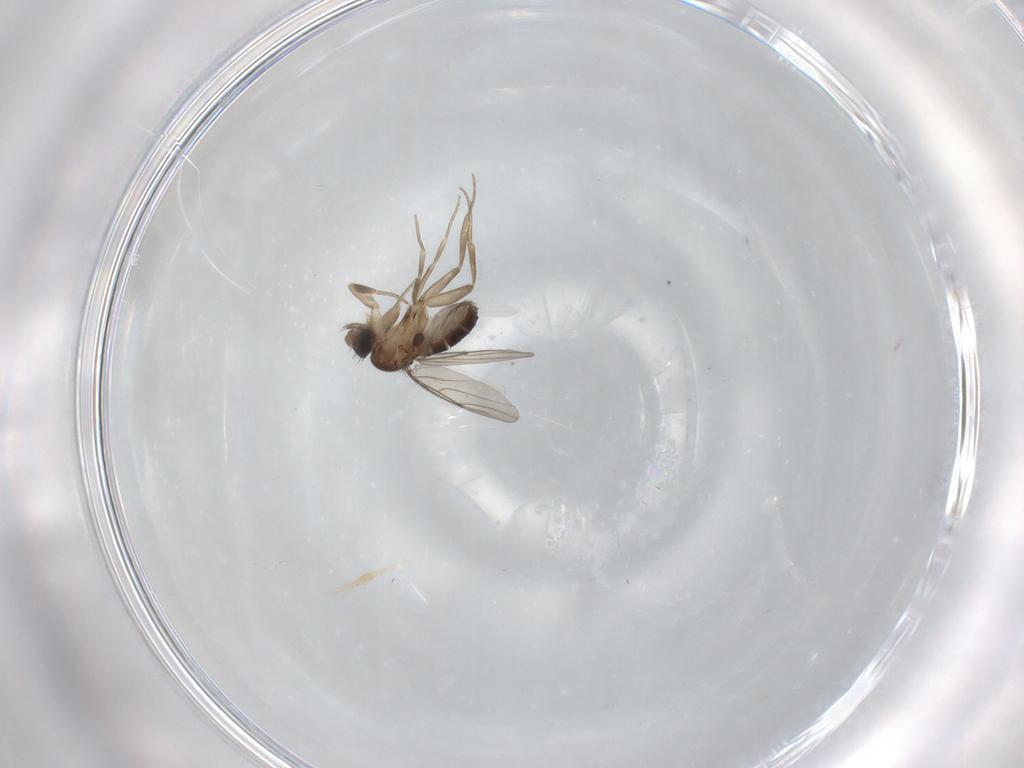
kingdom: Animalia
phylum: Arthropoda
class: Insecta
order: Diptera
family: Phoridae
